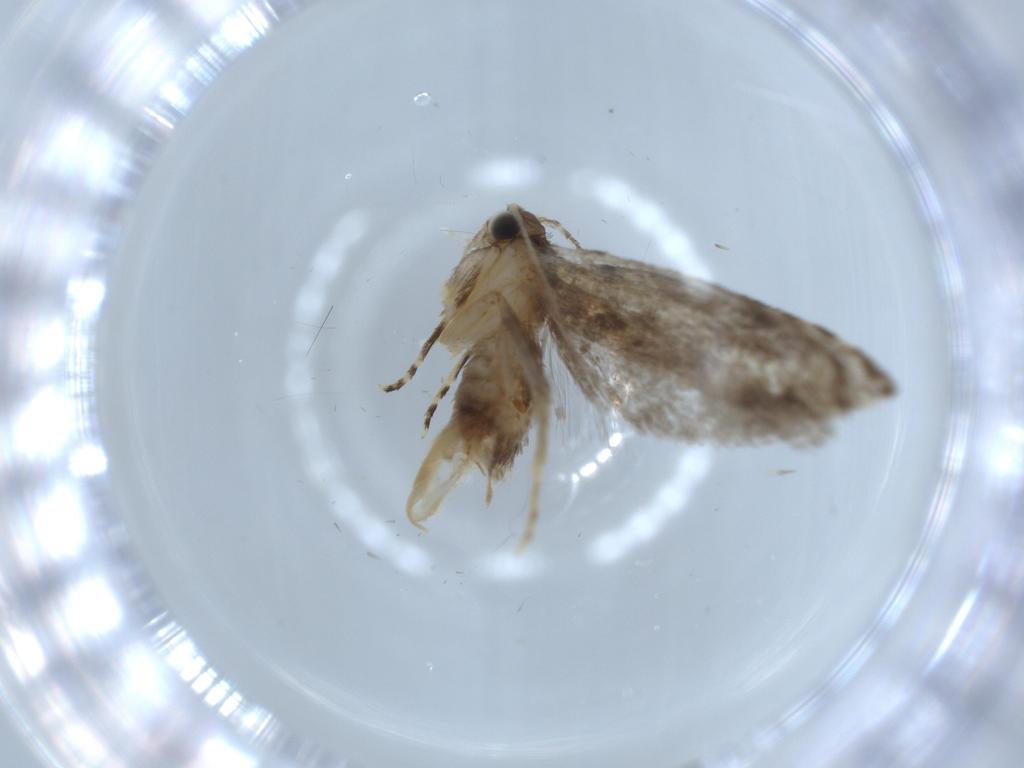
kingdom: Animalia
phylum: Arthropoda
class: Insecta
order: Lepidoptera
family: Tineidae
